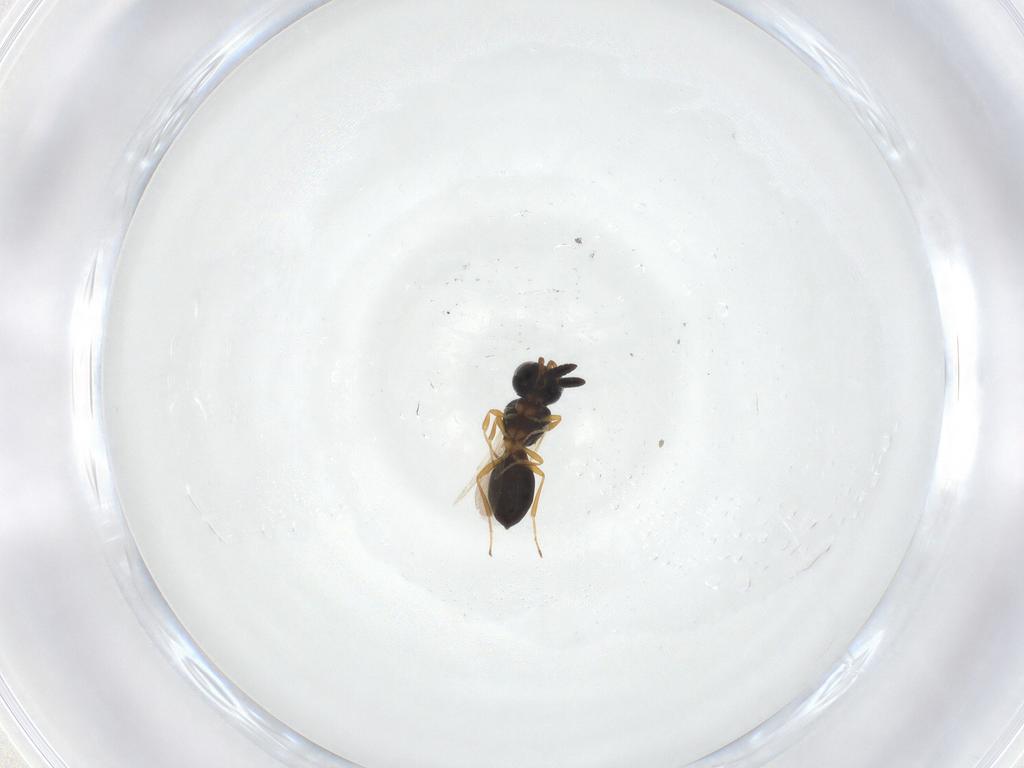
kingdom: Animalia
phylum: Arthropoda
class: Insecta
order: Hymenoptera
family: Scelionidae
